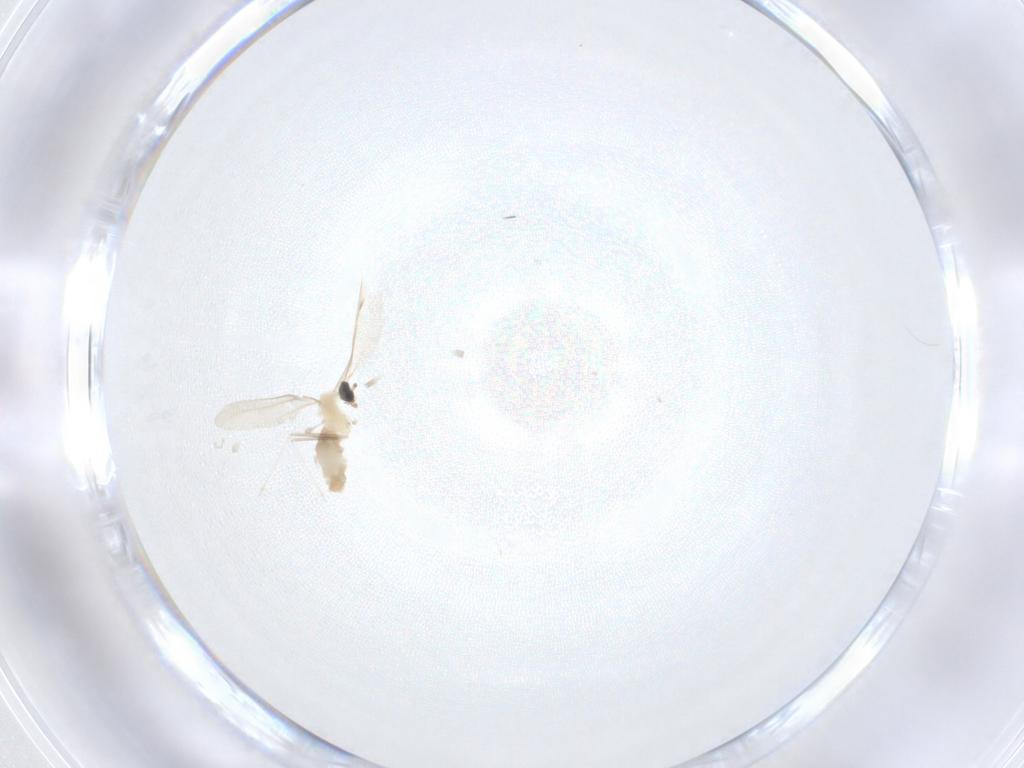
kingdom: Animalia
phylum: Arthropoda
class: Insecta
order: Diptera
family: Cecidomyiidae
